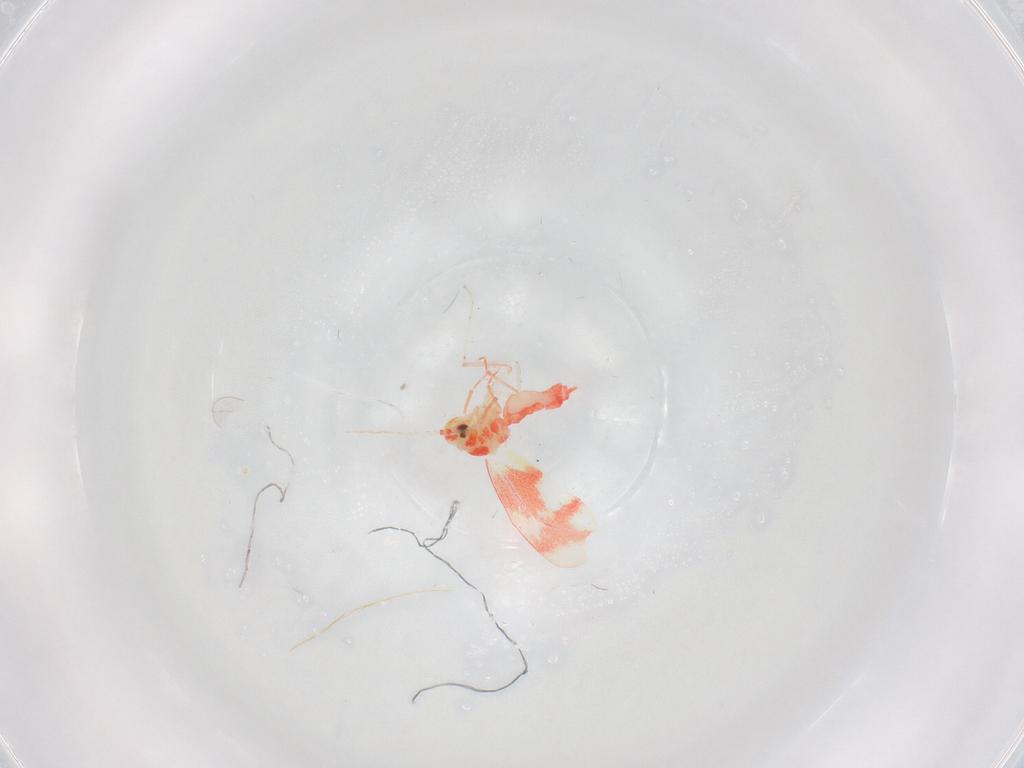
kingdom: Animalia
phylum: Arthropoda
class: Insecta
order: Hemiptera
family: Aleyrodidae
